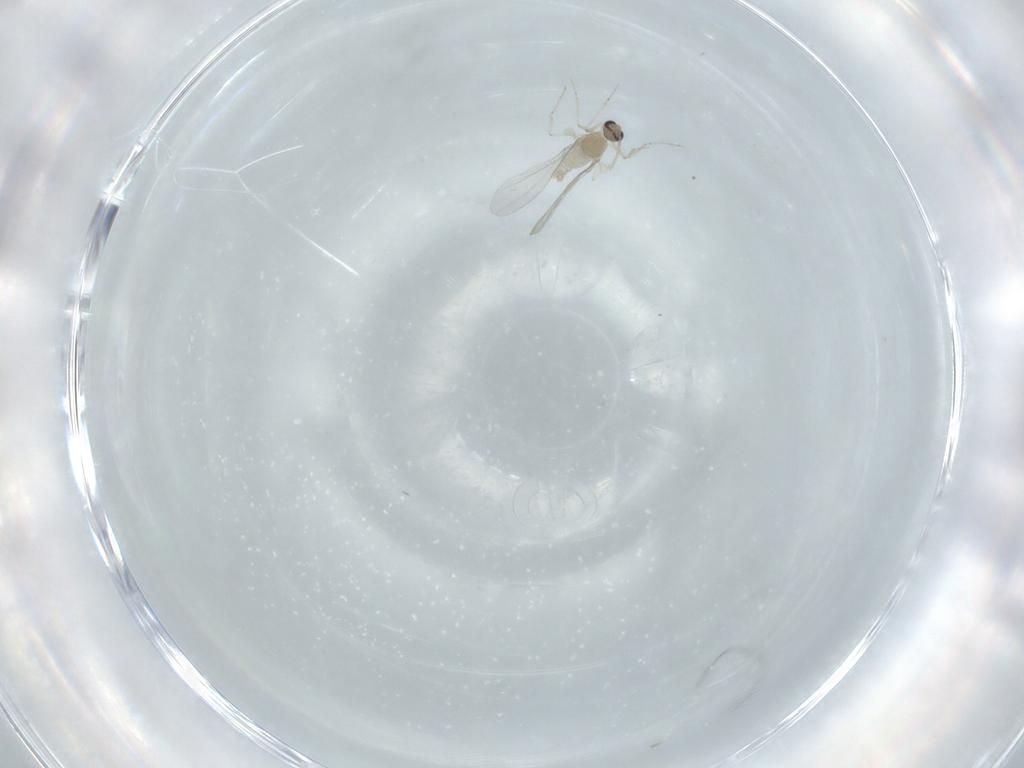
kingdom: Animalia
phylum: Arthropoda
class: Insecta
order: Diptera
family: Cecidomyiidae
